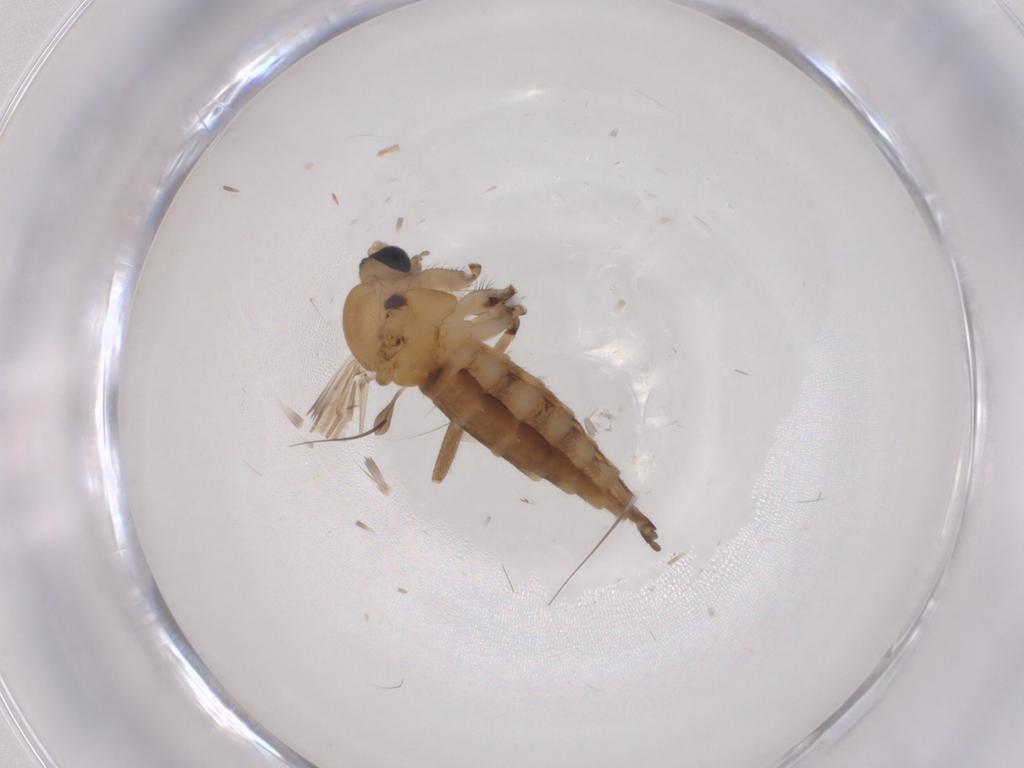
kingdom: Animalia
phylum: Arthropoda
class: Insecta
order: Diptera
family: Sciaridae
